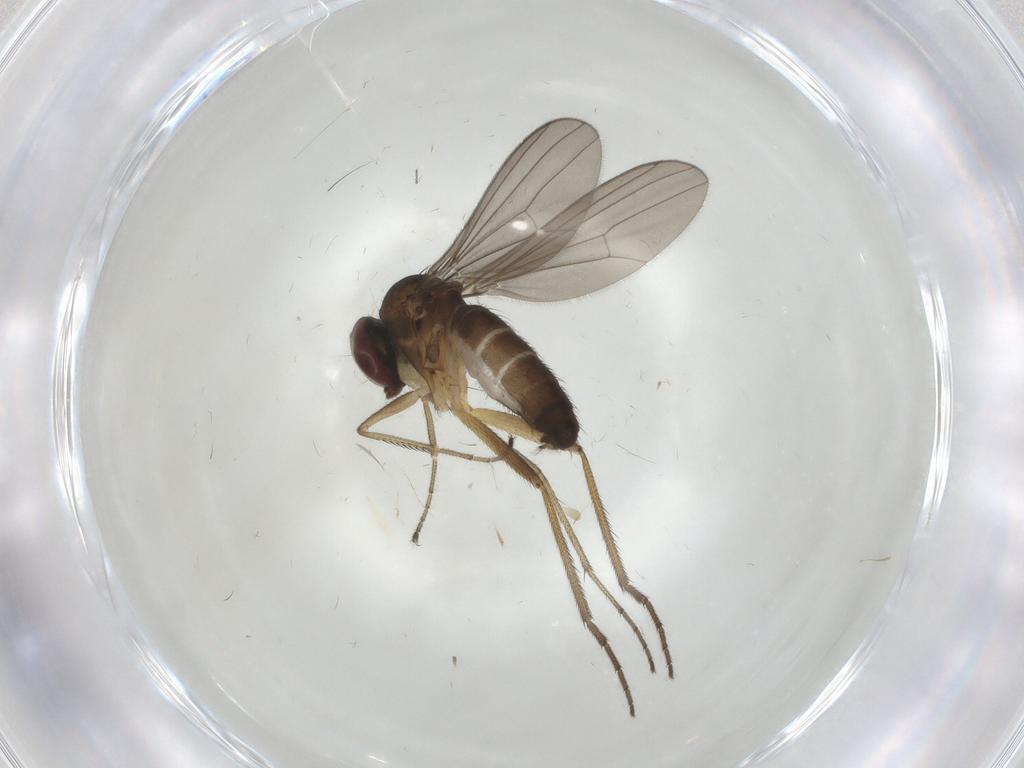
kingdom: Animalia
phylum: Arthropoda
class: Insecta
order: Diptera
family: Dolichopodidae
